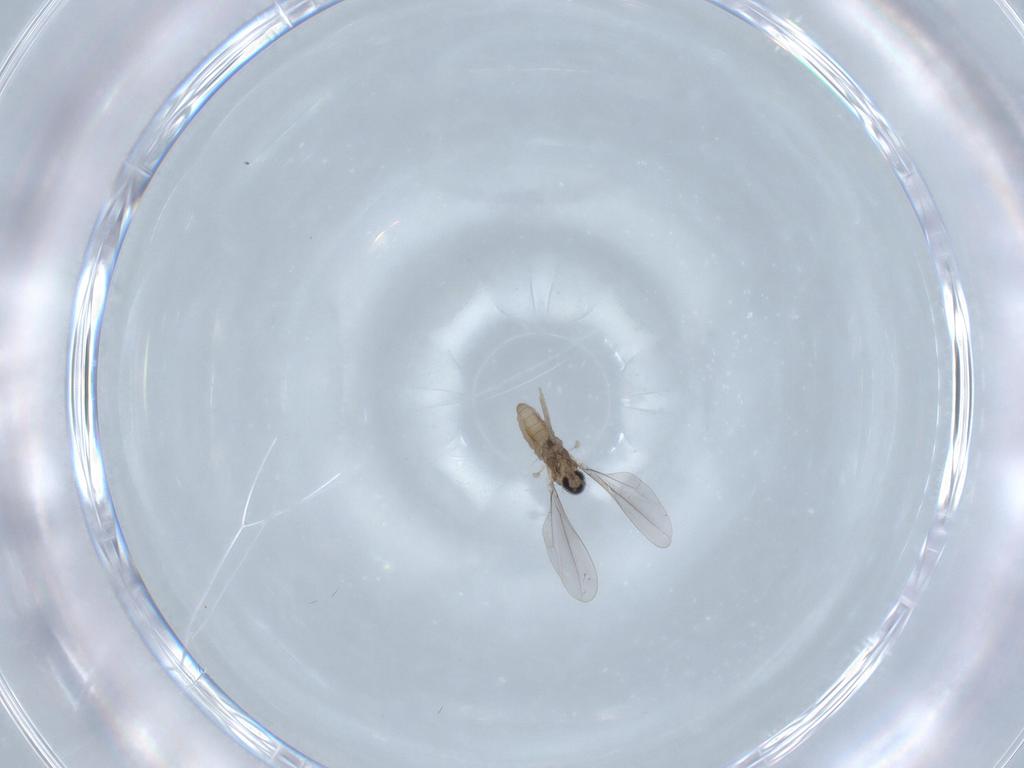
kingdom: Animalia
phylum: Arthropoda
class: Insecta
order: Diptera
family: Cecidomyiidae
